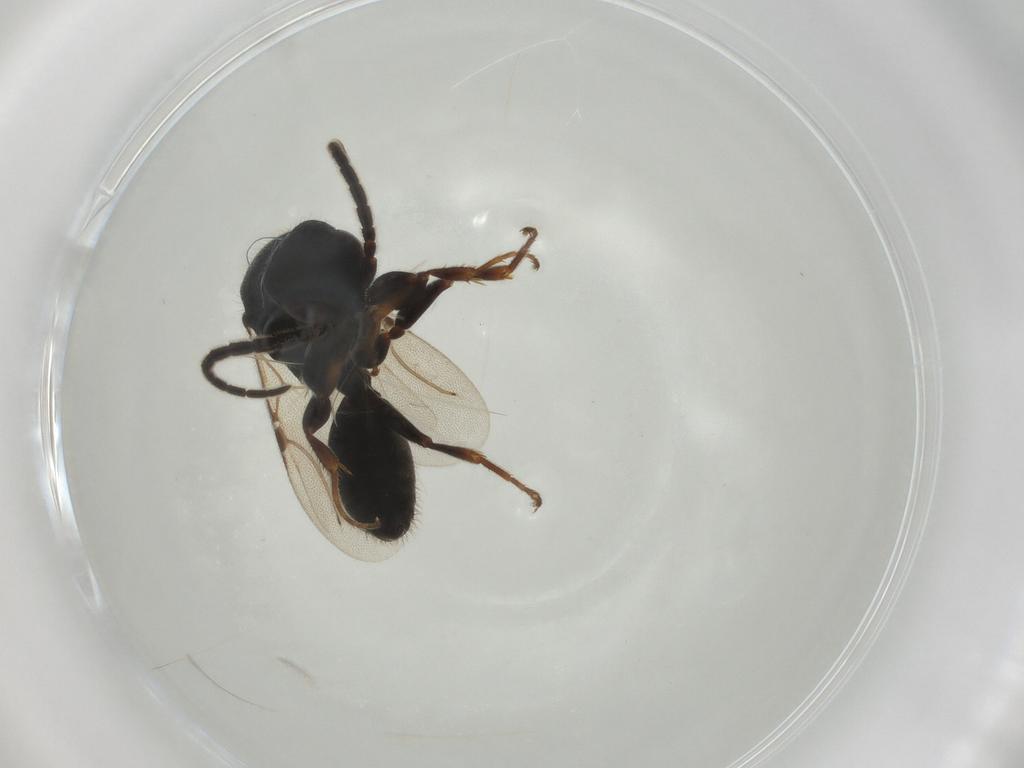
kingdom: Animalia
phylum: Arthropoda
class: Insecta
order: Hymenoptera
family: Bethylidae
